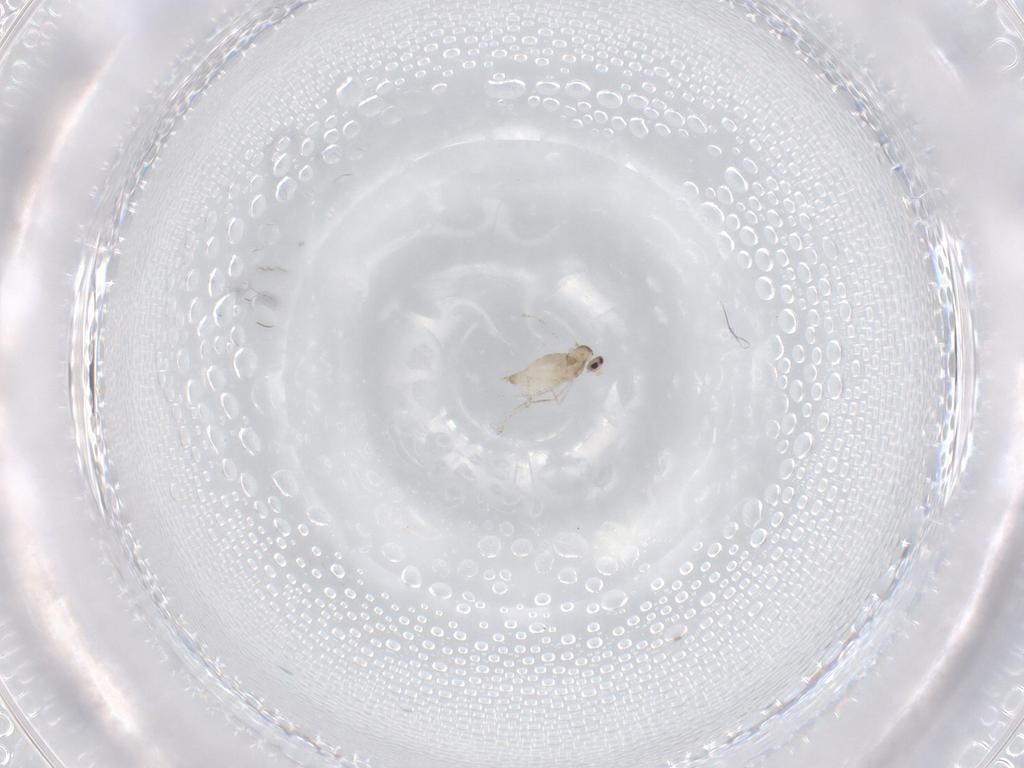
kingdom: Animalia
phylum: Arthropoda
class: Insecta
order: Diptera
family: Cecidomyiidae
